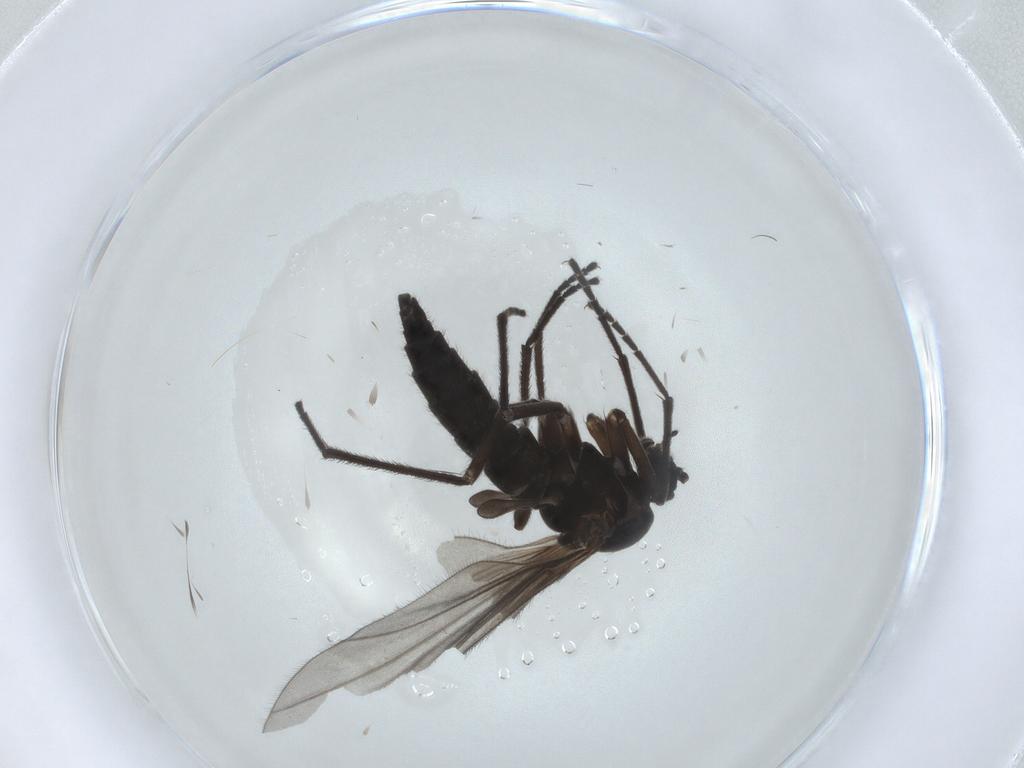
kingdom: Animalia
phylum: Arthropoda
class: Insecta
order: Diptera
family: Sciaridae
